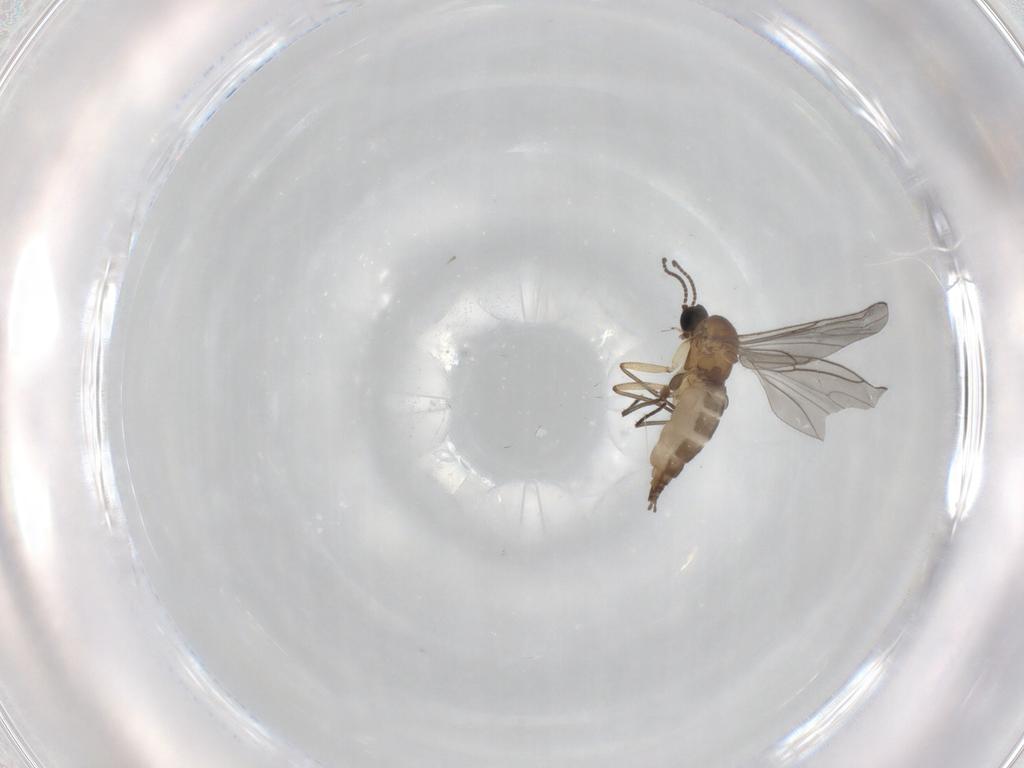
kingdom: Animalia
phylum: Arthropoda
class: Insecta
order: Diptera
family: Sciaridae
